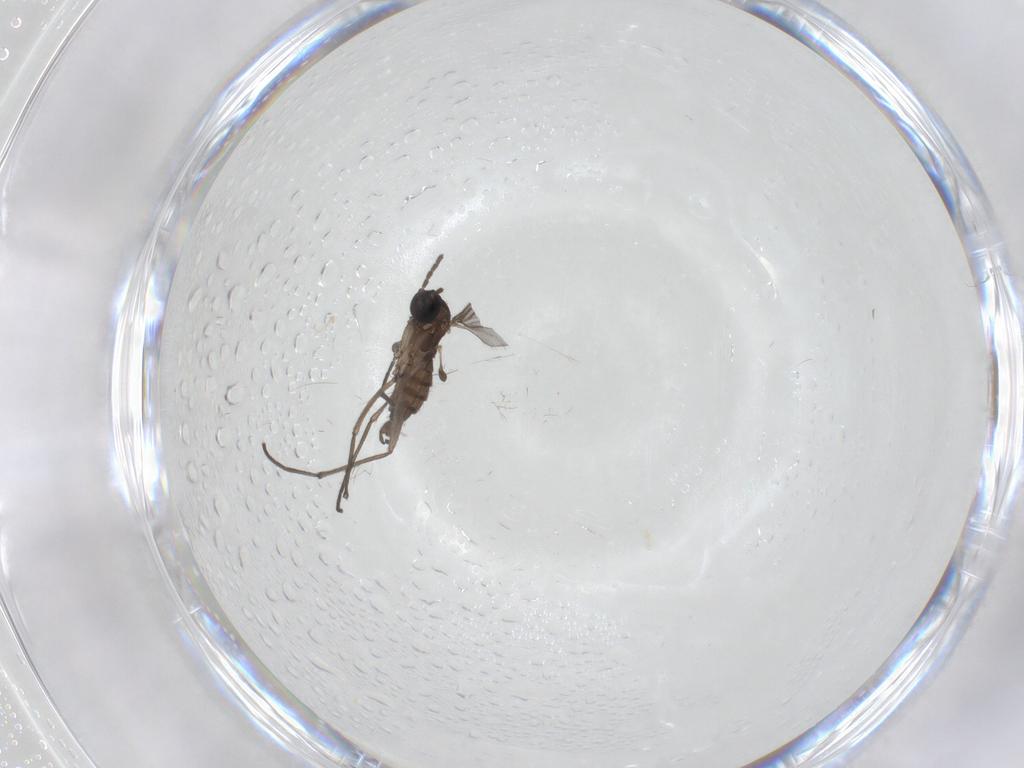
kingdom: Animalia
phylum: Arthropoda
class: Insecta
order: Diptera
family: Sciaridae
